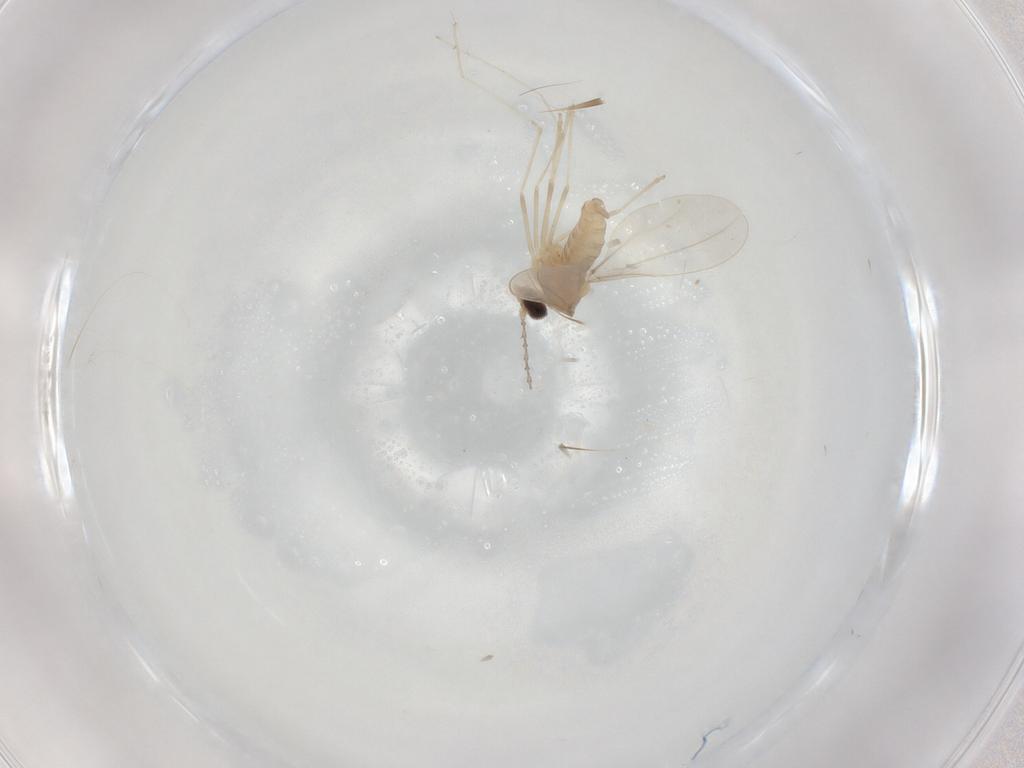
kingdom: Animalia
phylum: Arthropoda
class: Insecta
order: Diptera
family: Cecidomyiidae
